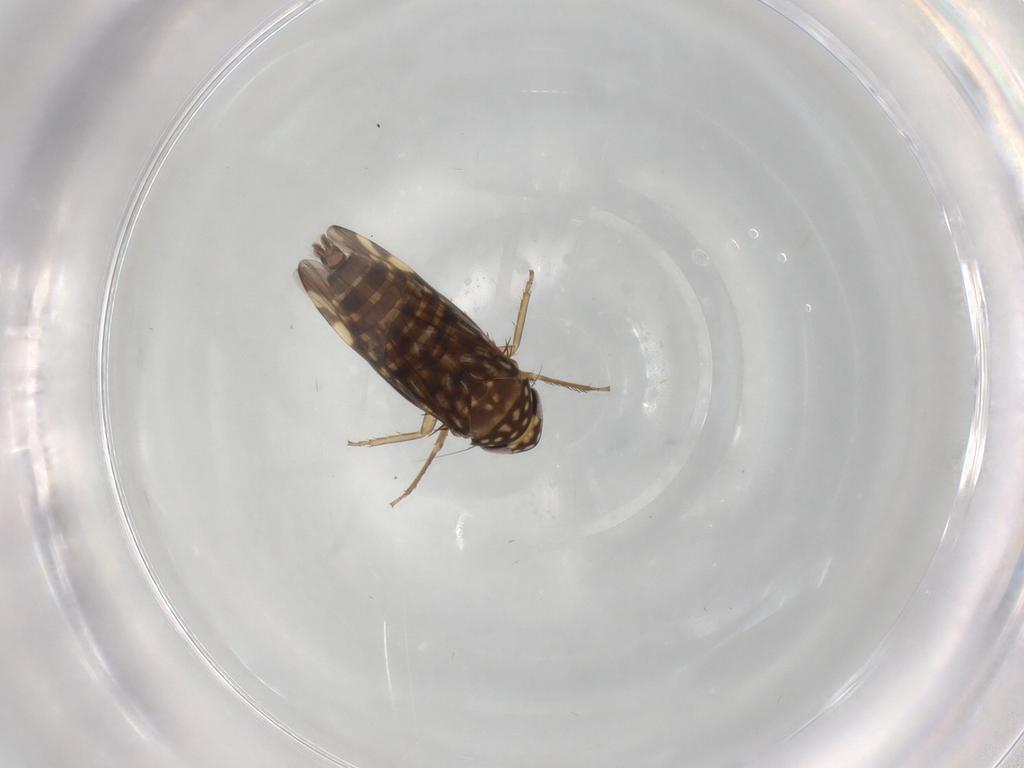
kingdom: Animalia
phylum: Arthropoda
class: Insecta
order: Hemiptera
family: Cicadellidae
